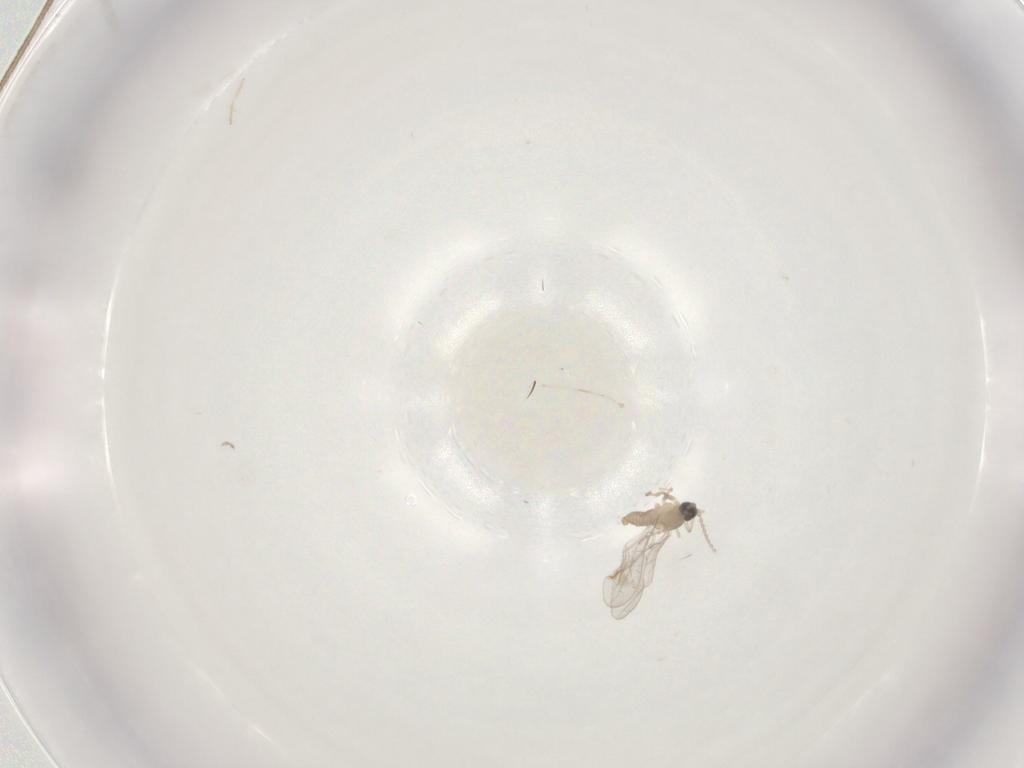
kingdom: Animalia
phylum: Arthropoda
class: Insecta
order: Diptera
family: Cecidomyiidae
